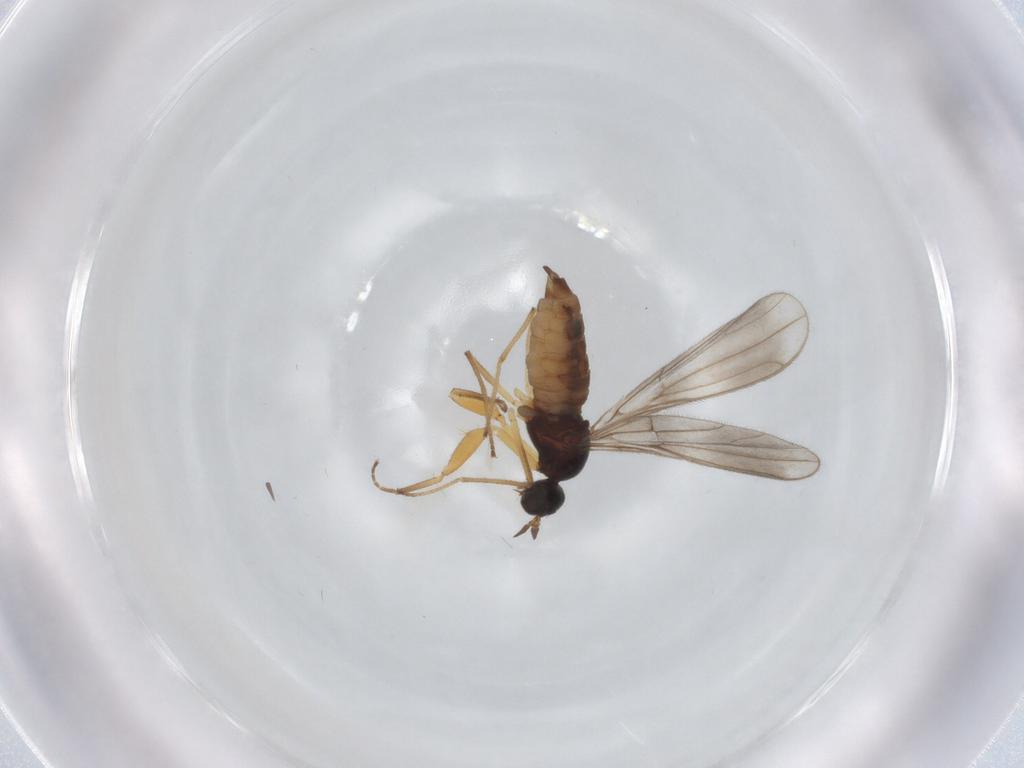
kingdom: Animalia
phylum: Arthropoda
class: Insecta
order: Diptera
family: Empididae
